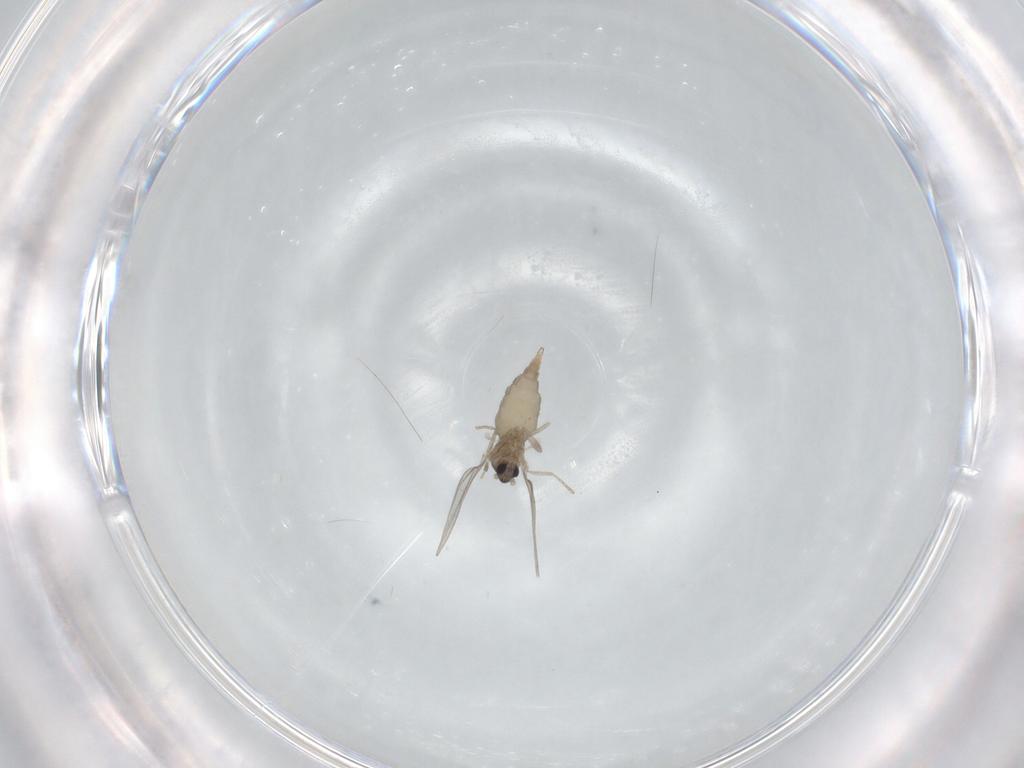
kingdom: Animalia
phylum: Arthropoda
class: Insecta
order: Diptera
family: Cecidomyiidae
